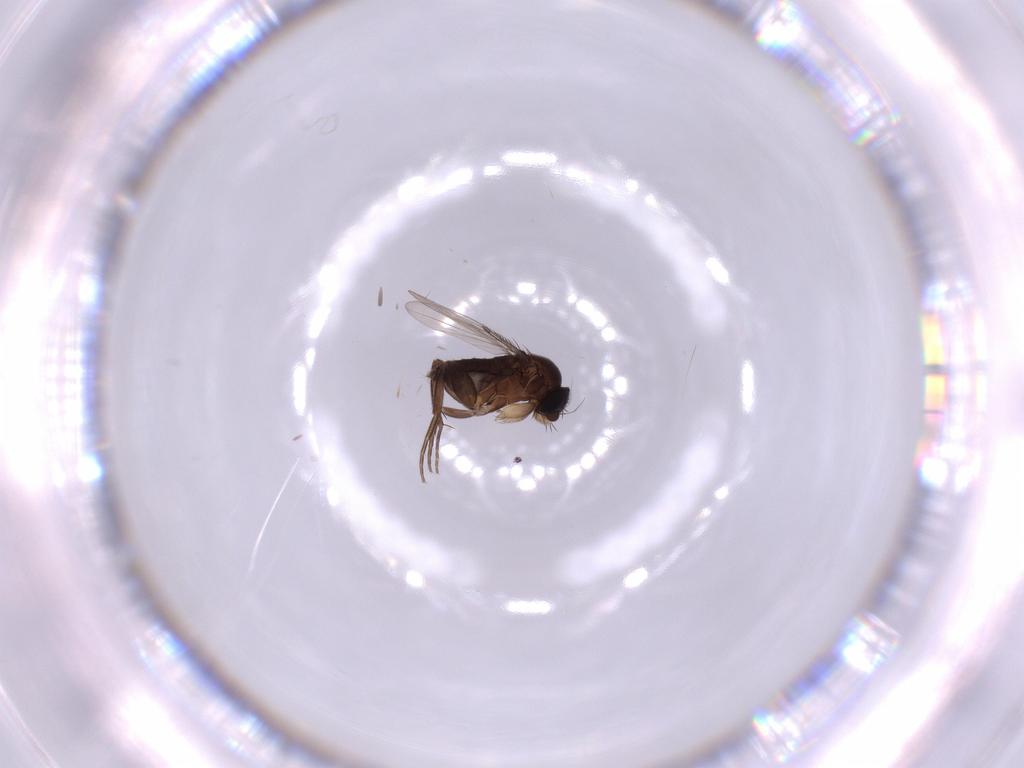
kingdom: Animalia
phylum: Arthropoda
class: Insecta
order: Diptera
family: Phoridae
